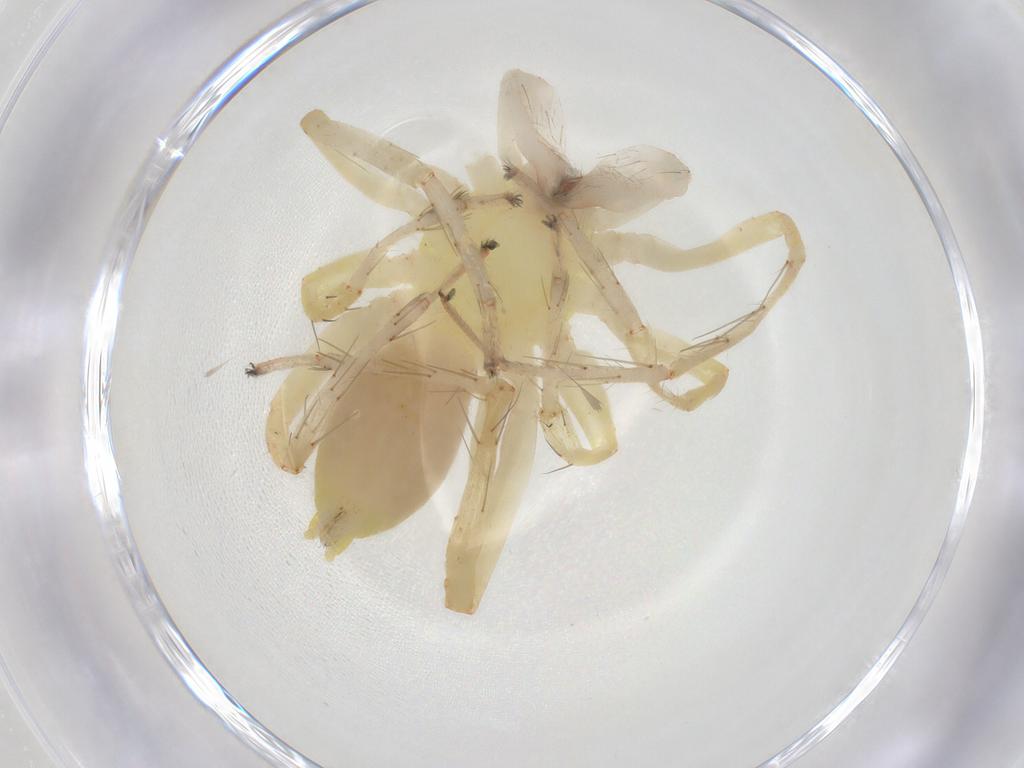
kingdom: Animalia
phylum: Arthropoda
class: Arachnida
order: Araneae
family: Anyphaenidae
